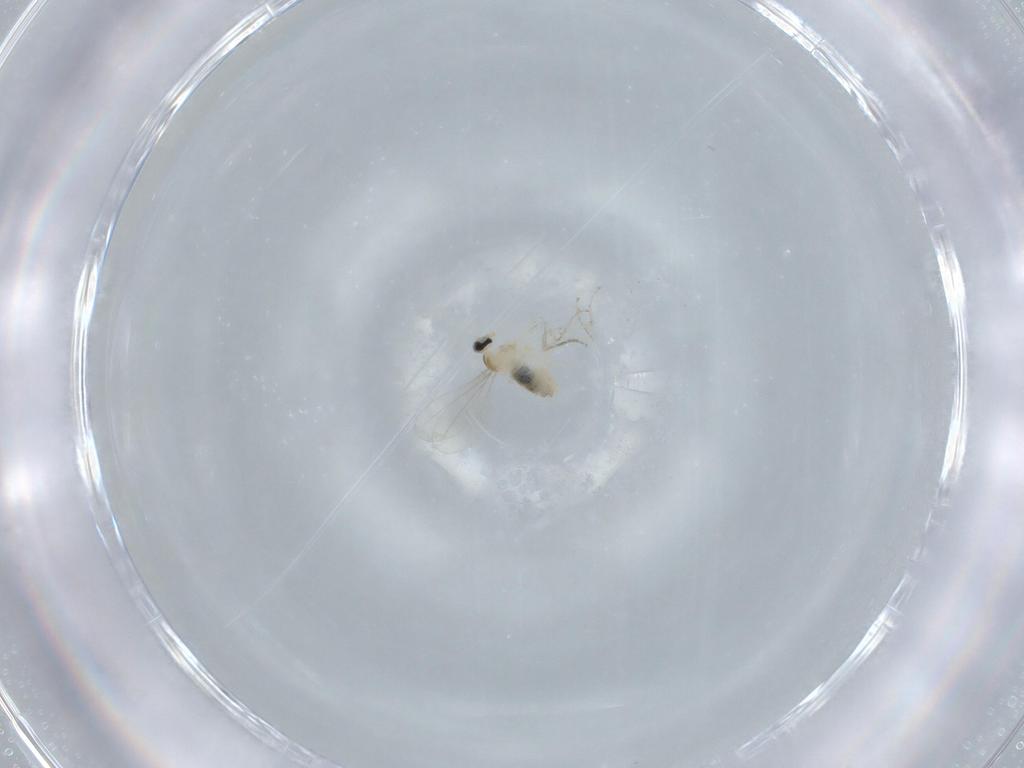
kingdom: Animalia
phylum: Arthropoda
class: Insecta
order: Diptera
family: Cecidomyiidae
